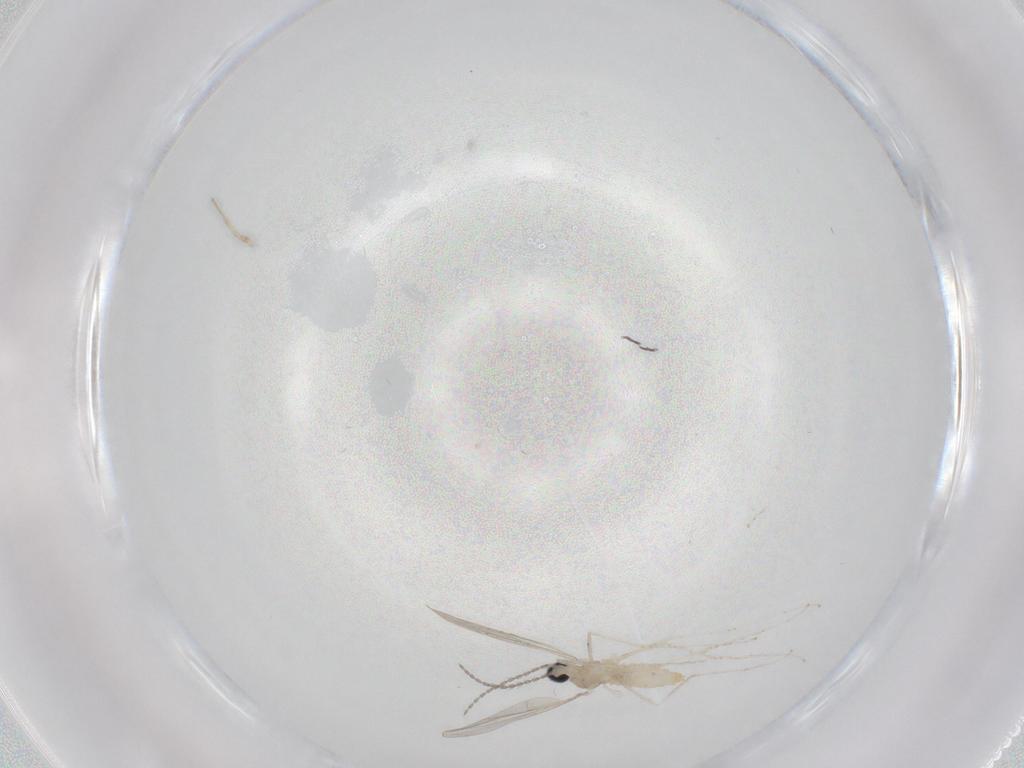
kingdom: Animalia
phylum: Arthropoda
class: Insecta
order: Diptera
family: Cecidomyiidae
